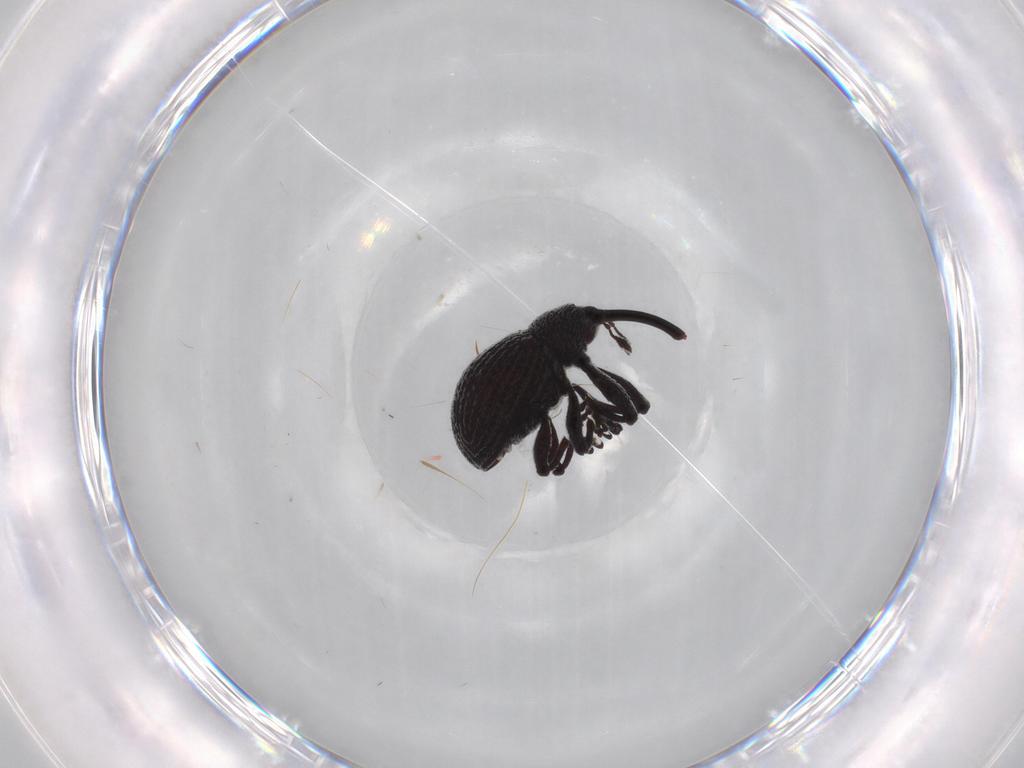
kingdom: Animalia
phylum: Arthropoda
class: Insecta
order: Coleoptera
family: Curculionidae
